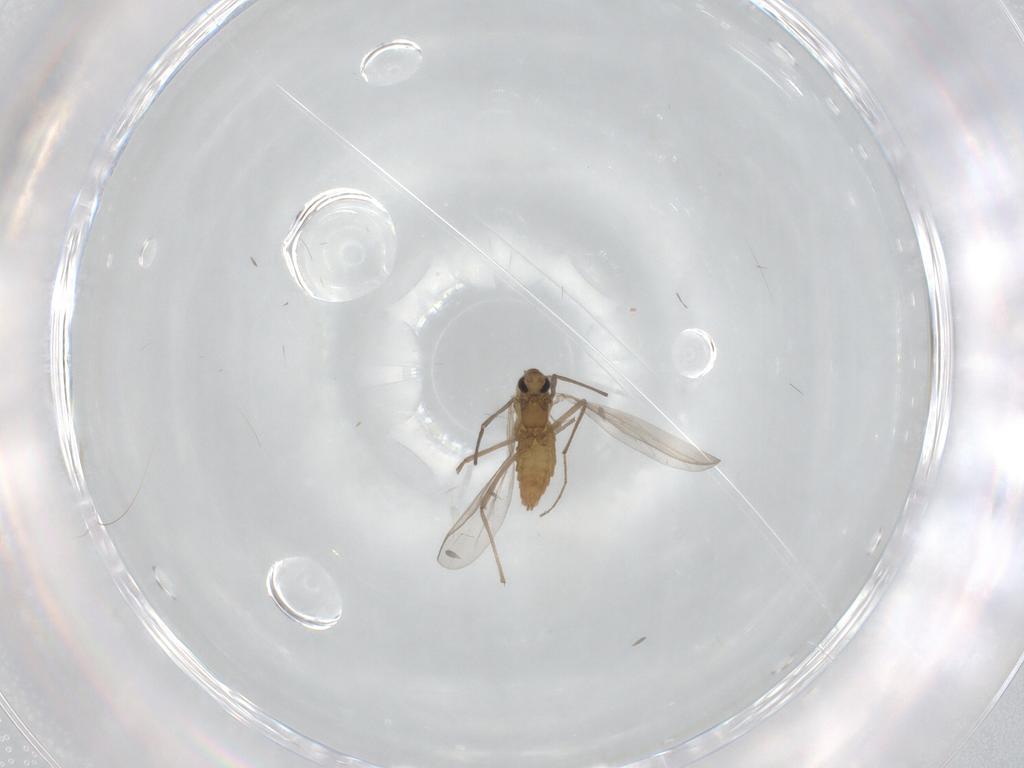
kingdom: Animalia
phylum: Arthropoda
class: Insecta
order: Diptera
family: Chironomidae
